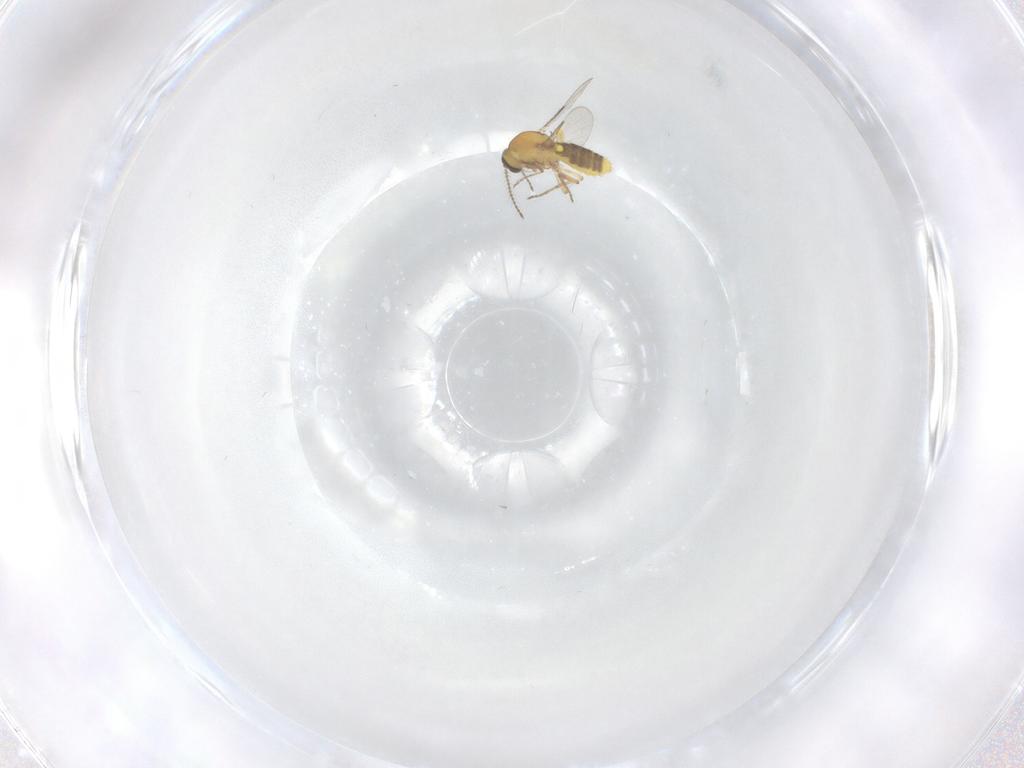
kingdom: Animalia
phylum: Arthropoda
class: Insecta
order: Diptera
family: Ceratopogonidae
